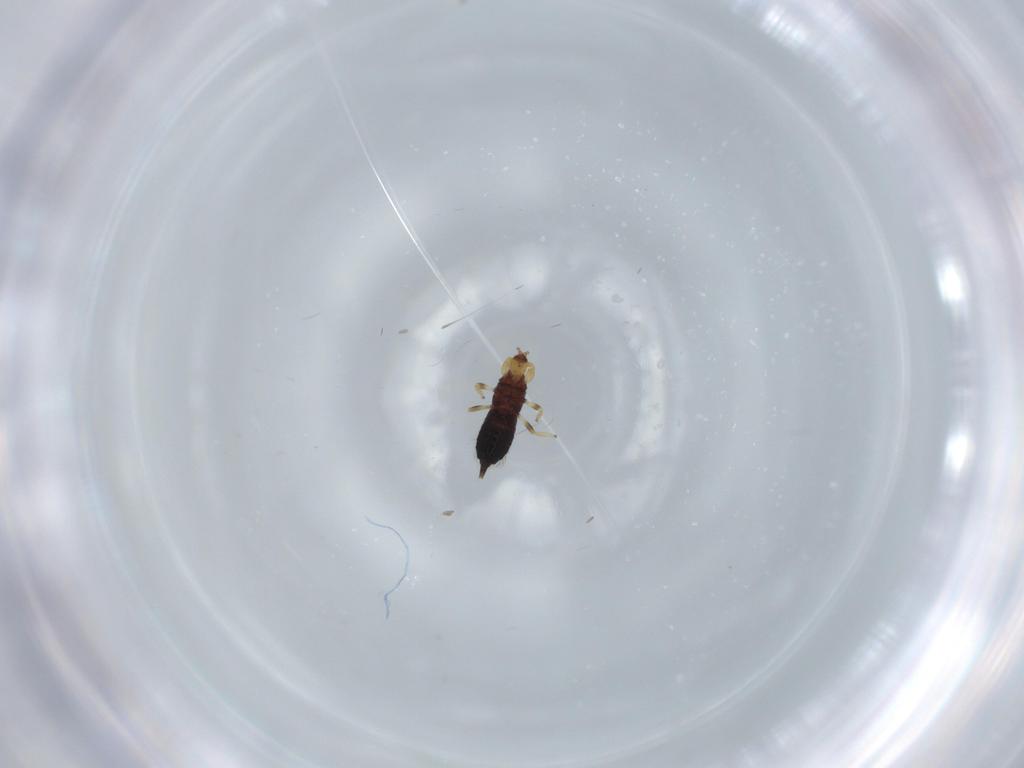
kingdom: Animalia
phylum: Arthropoda
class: Insecta
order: Thysanoptera
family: Phlaeothripidae
